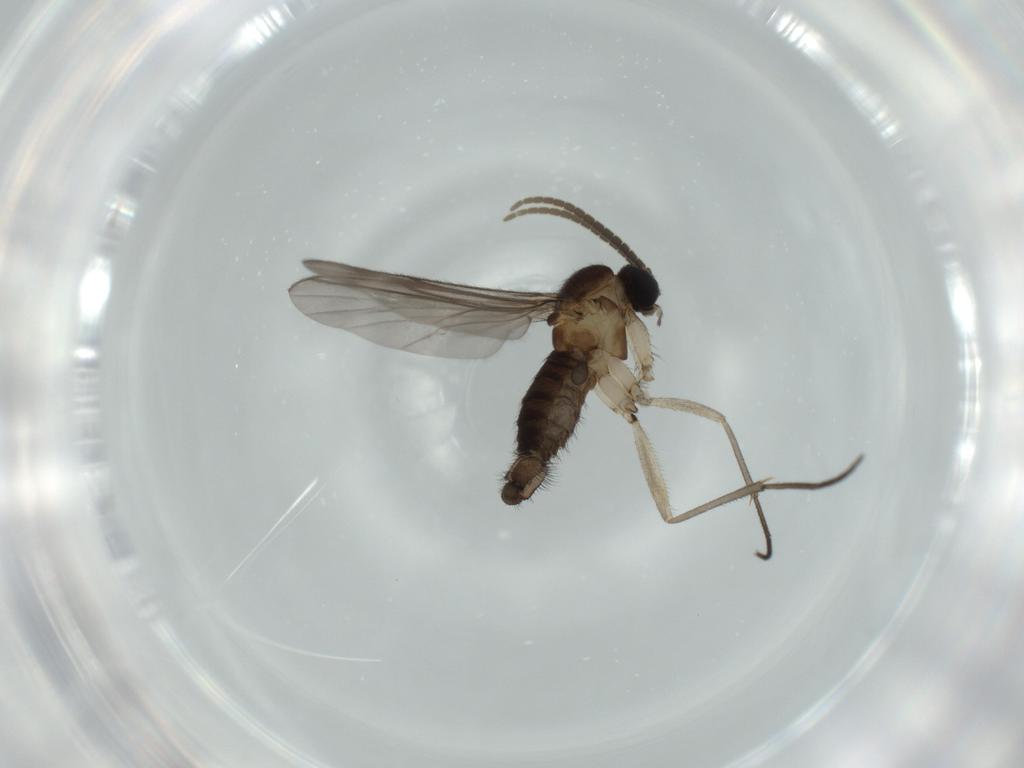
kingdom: Animalia
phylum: Arthropoda
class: Insecta
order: Diptera
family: Sciaridae
